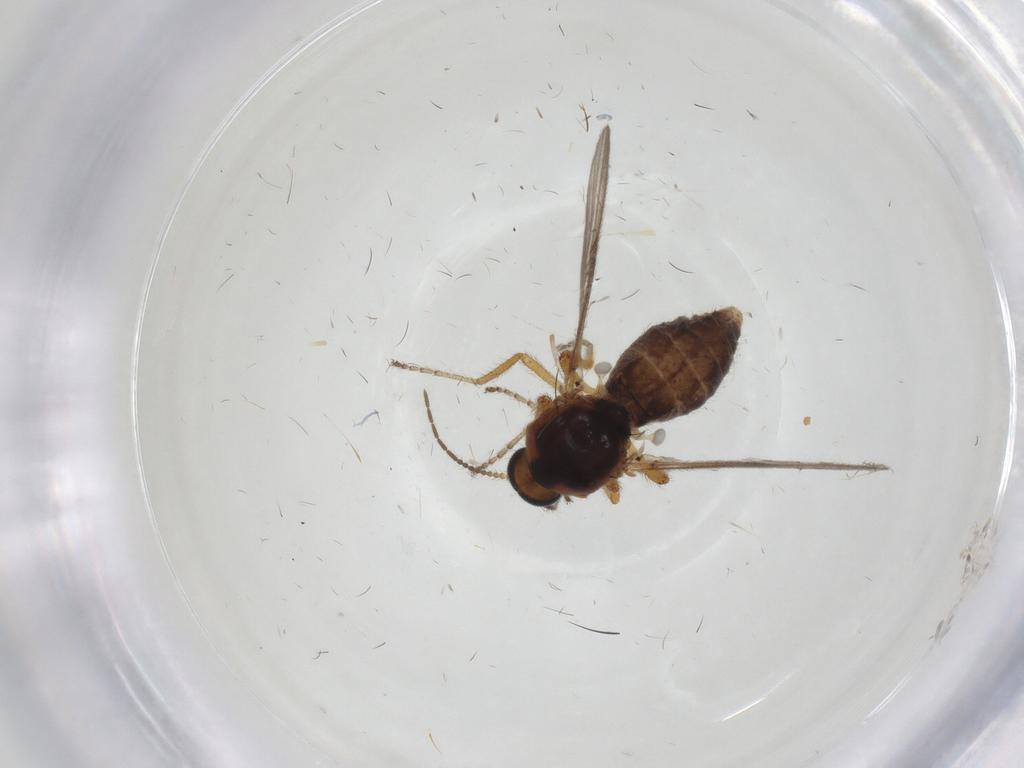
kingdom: Animalia
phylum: Arthropoda
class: Insecta
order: Diptera
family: Ceratopogonidae
